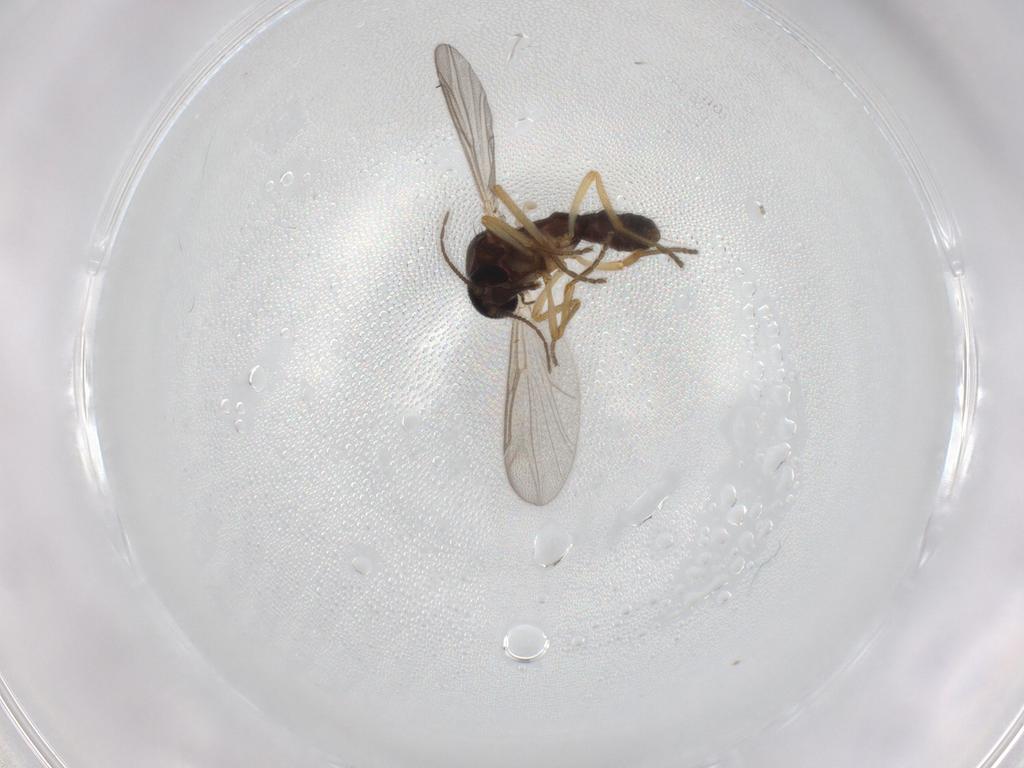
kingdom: Animalia
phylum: Arthropoda
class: Insecta
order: Diptera
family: Ceratopogonidae
